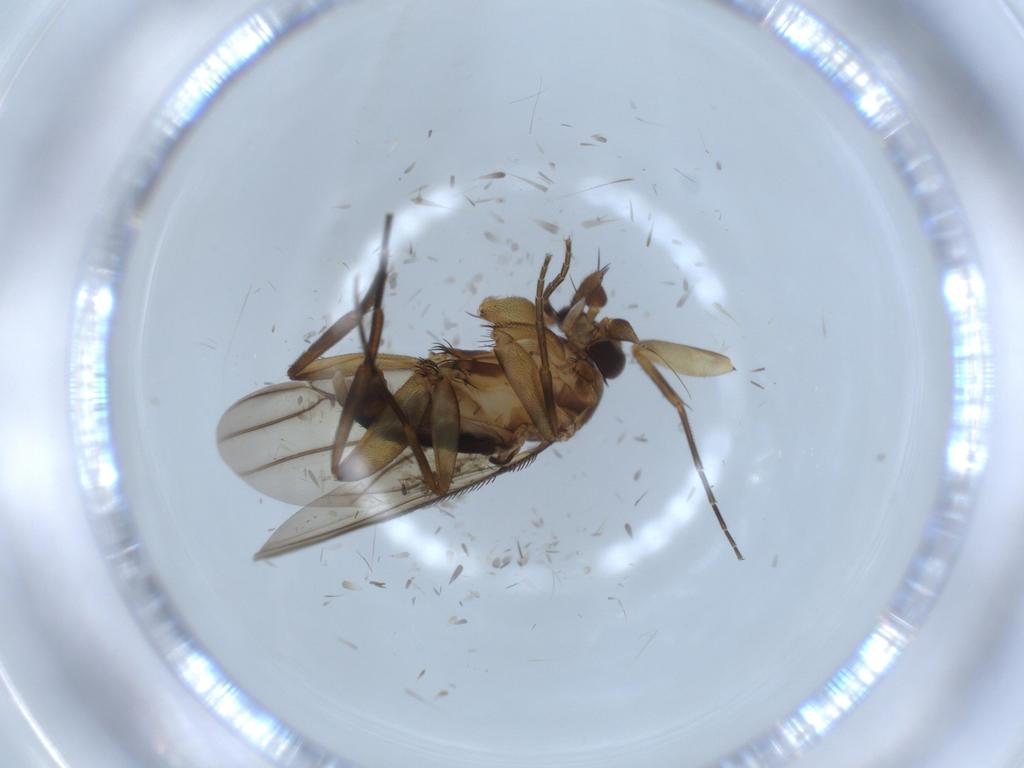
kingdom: Animalia
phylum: Arthropoda
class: Insecta
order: Diptera
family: Phoridae
